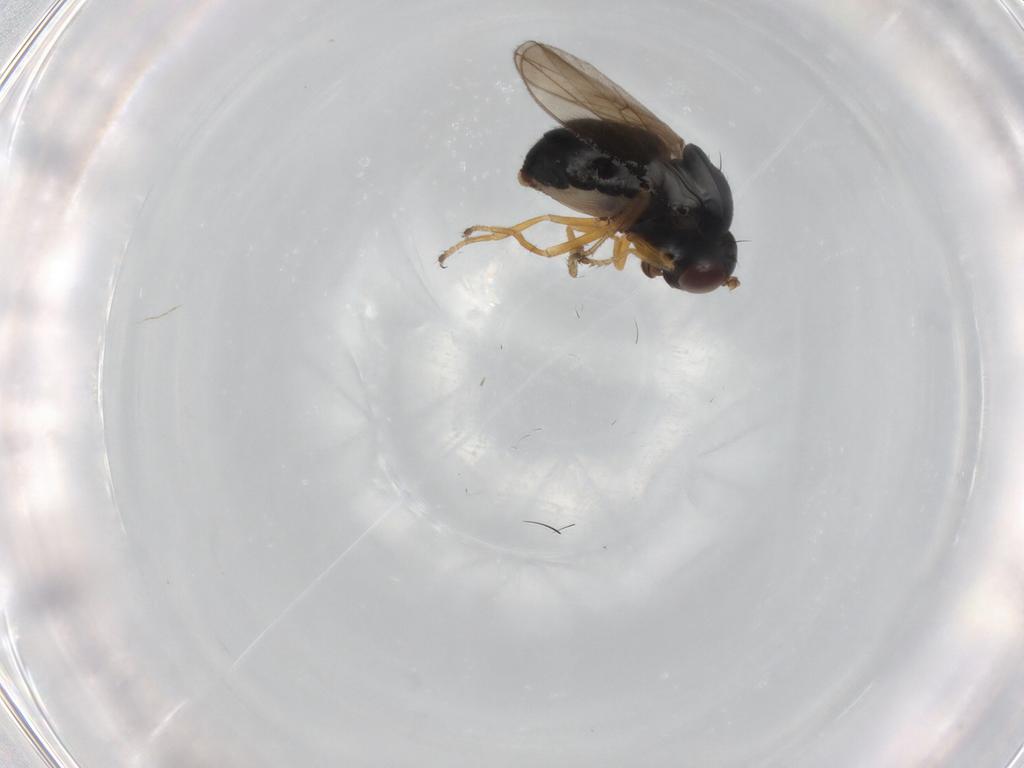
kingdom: Animalia
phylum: Arthropoda
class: Insecta
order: Diptera
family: Ephydridae
